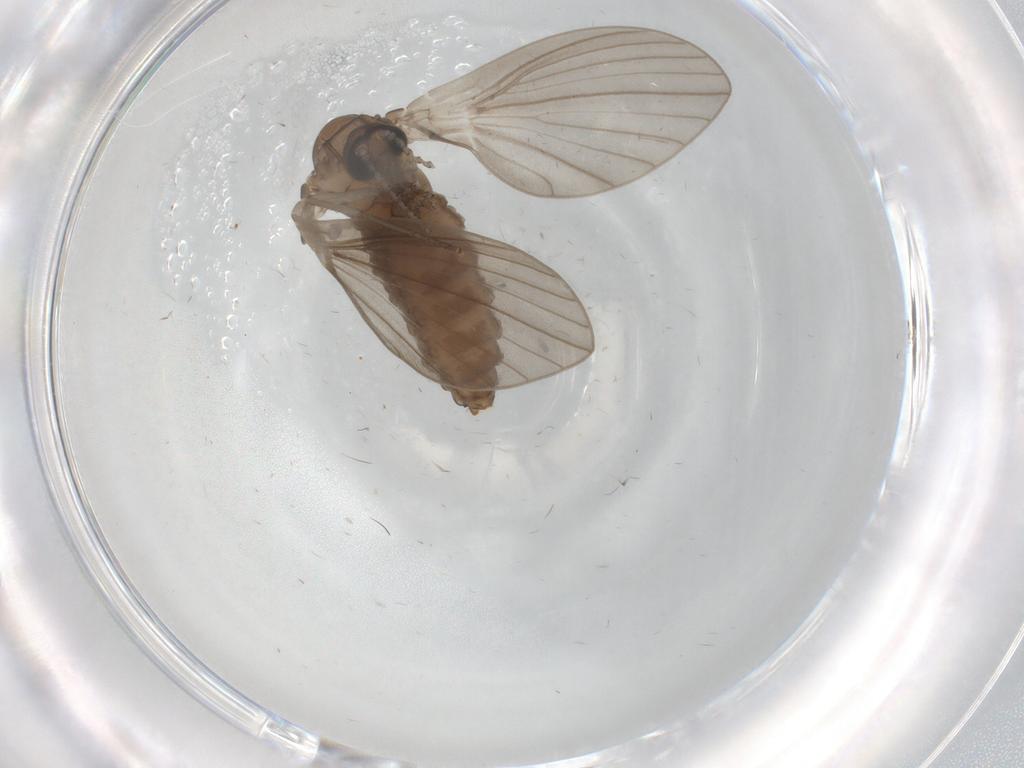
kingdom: Animalia
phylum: Arthropoda
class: Insecta
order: Diptera
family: Psychodidae
